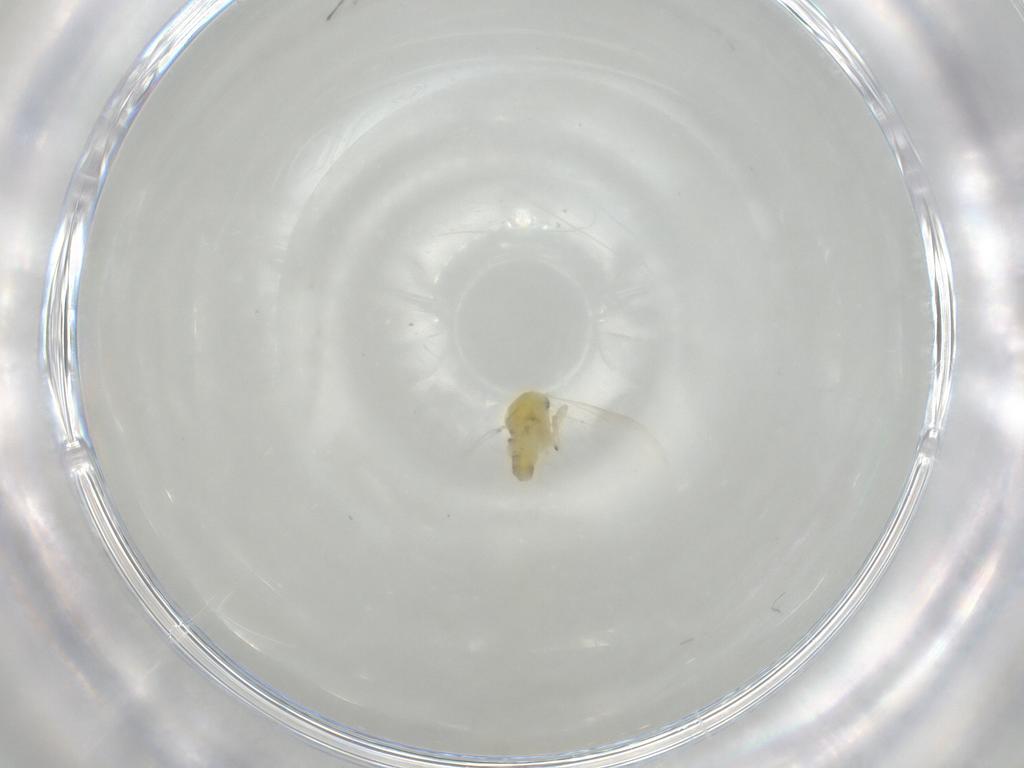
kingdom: Animalia
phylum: Arthropoda
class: Insecta
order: Hemiptera
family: Aleyrodidae
